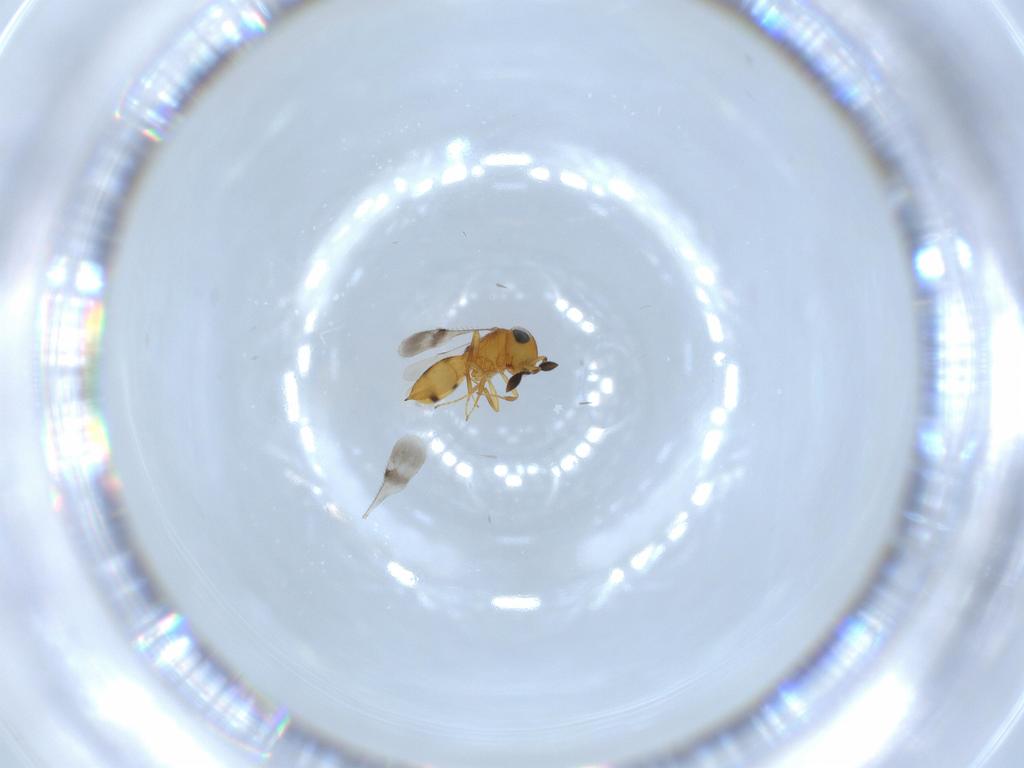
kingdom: Animalia
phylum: Arthropoda
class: Insecta
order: Hymenoptera
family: Scelionidae
